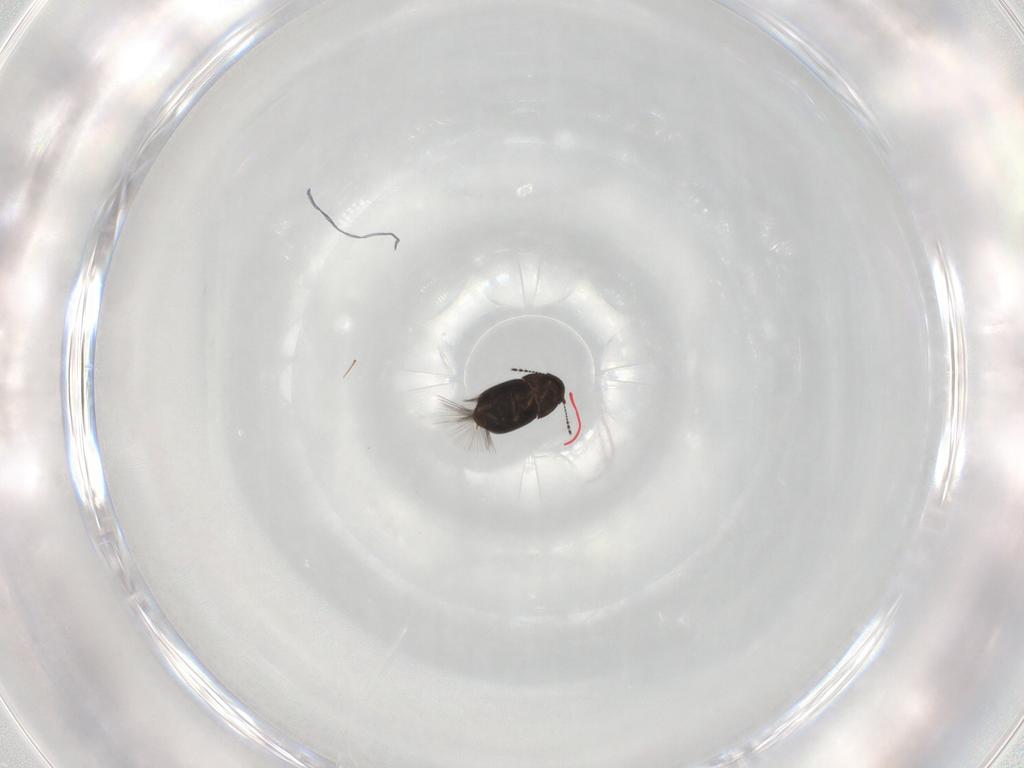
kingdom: Animalia
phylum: Arthropoda
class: Insecta
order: Coleoptera
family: Ptiliidae
